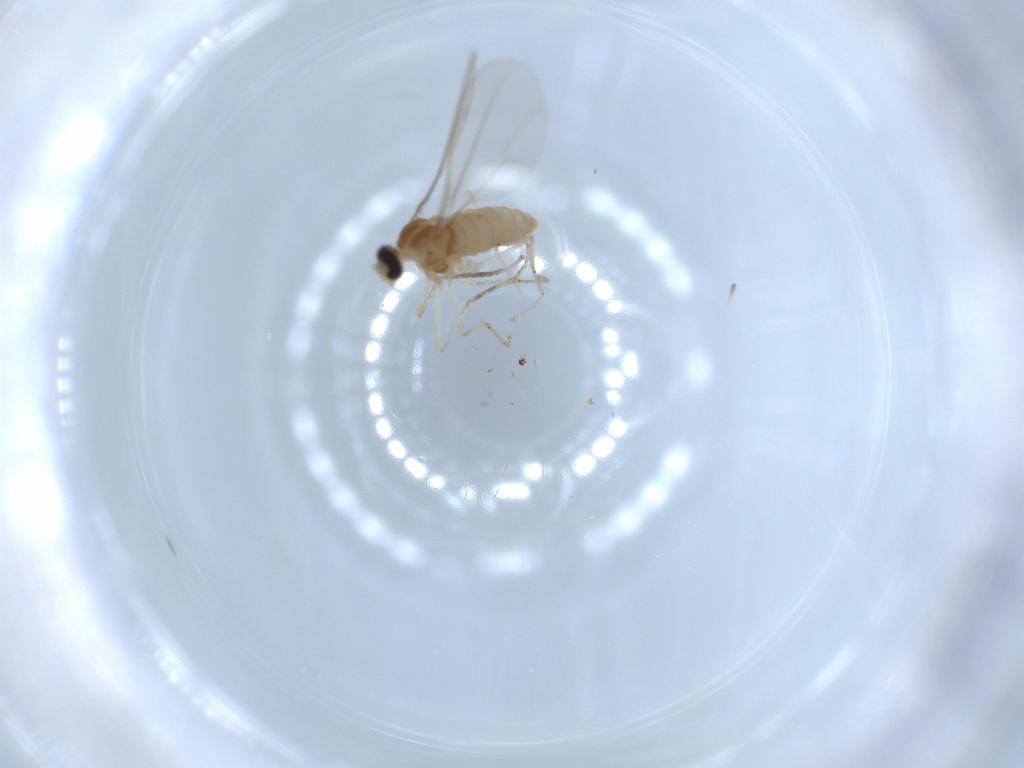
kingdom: Animalia
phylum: Arthropoda
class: Insecta
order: Diptera
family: Cecidomyiidae
